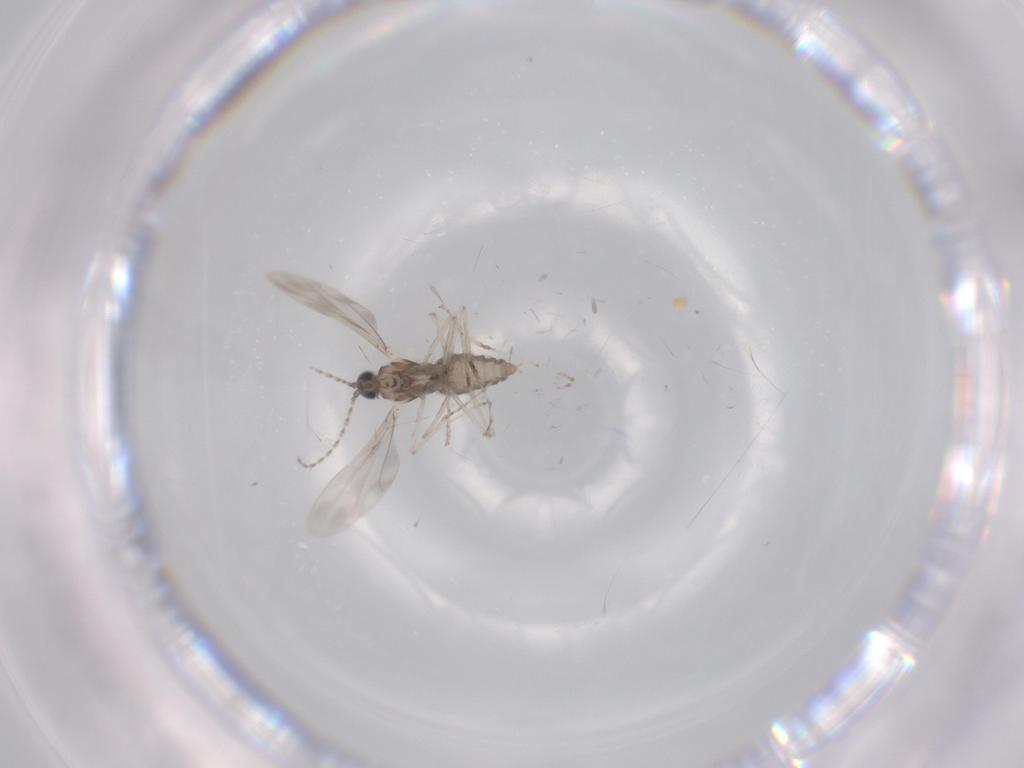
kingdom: Animalia
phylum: Arthropoda
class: Insecta
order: Diptera
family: Cecidomyiidae
